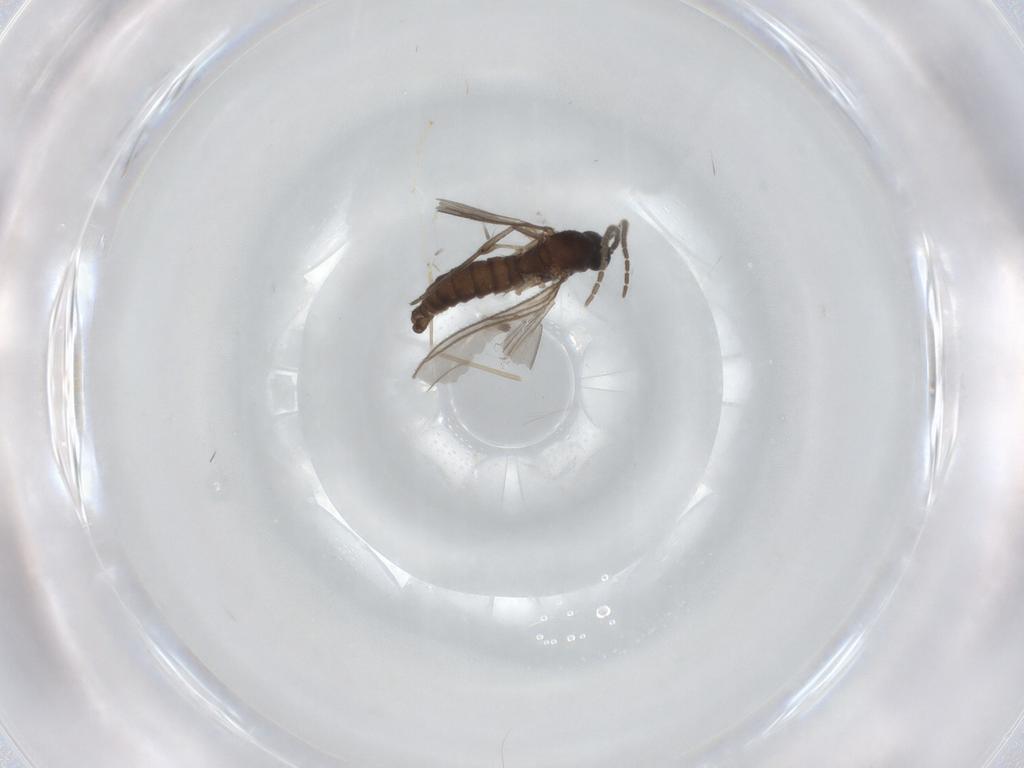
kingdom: Animalia
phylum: Arthropoda
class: Insecta
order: Diptera
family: Sciaridae
